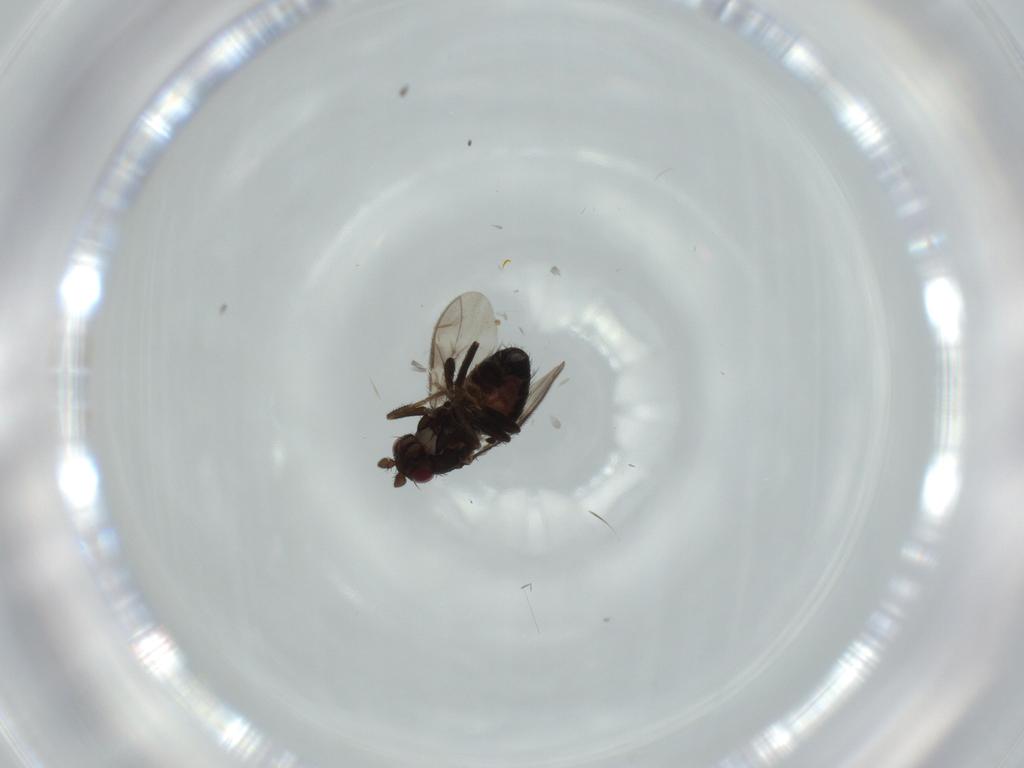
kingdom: Animalia
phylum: Arthropoda
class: Insecta
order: Diptera
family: Sphaeroceridae
